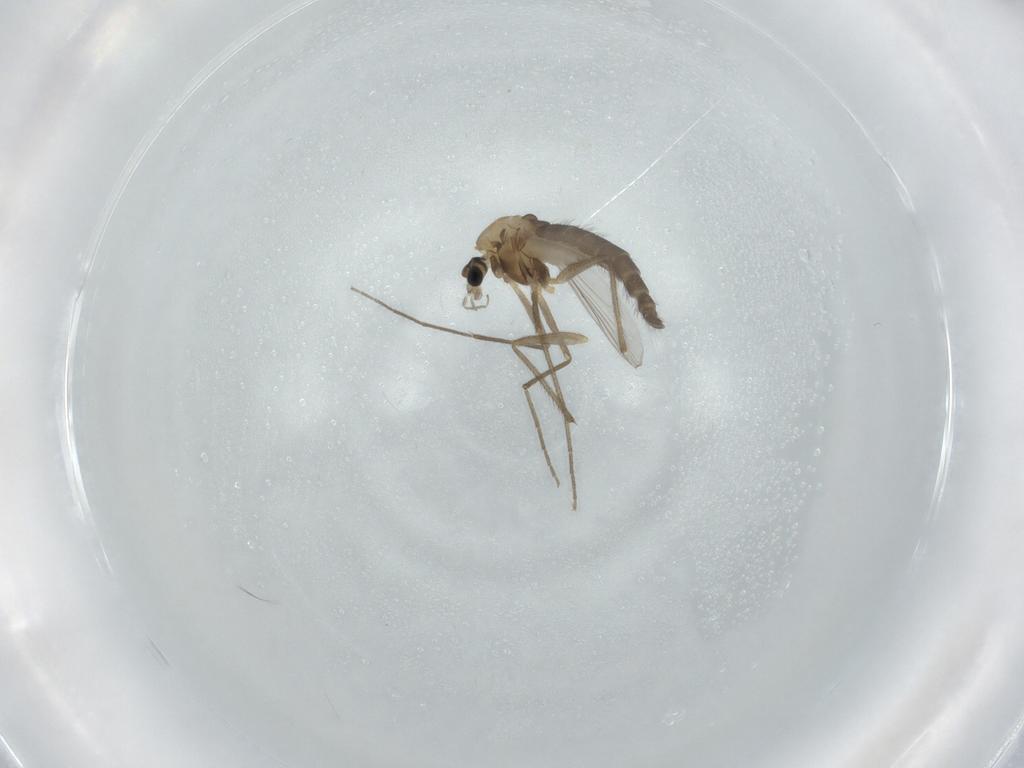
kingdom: Animalia
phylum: Arthropoda
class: Insecta
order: Diptera
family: Chironomidae
